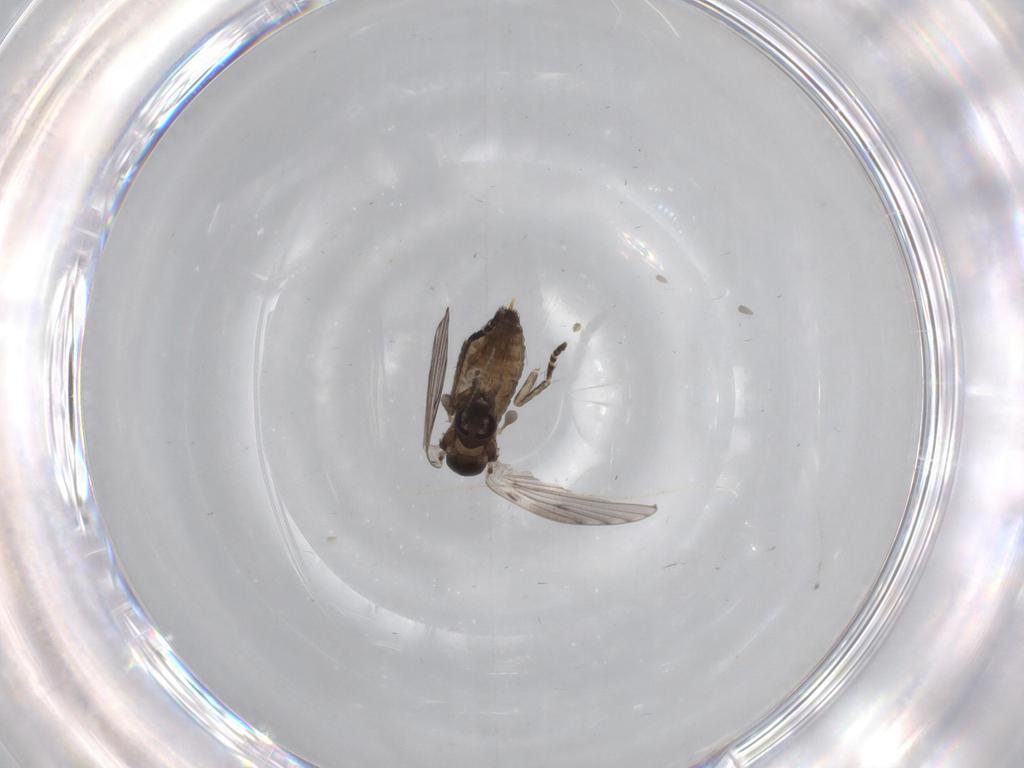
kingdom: Animalia
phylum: Arthropoda
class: Insecta
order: Diptera
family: Psychodidae
